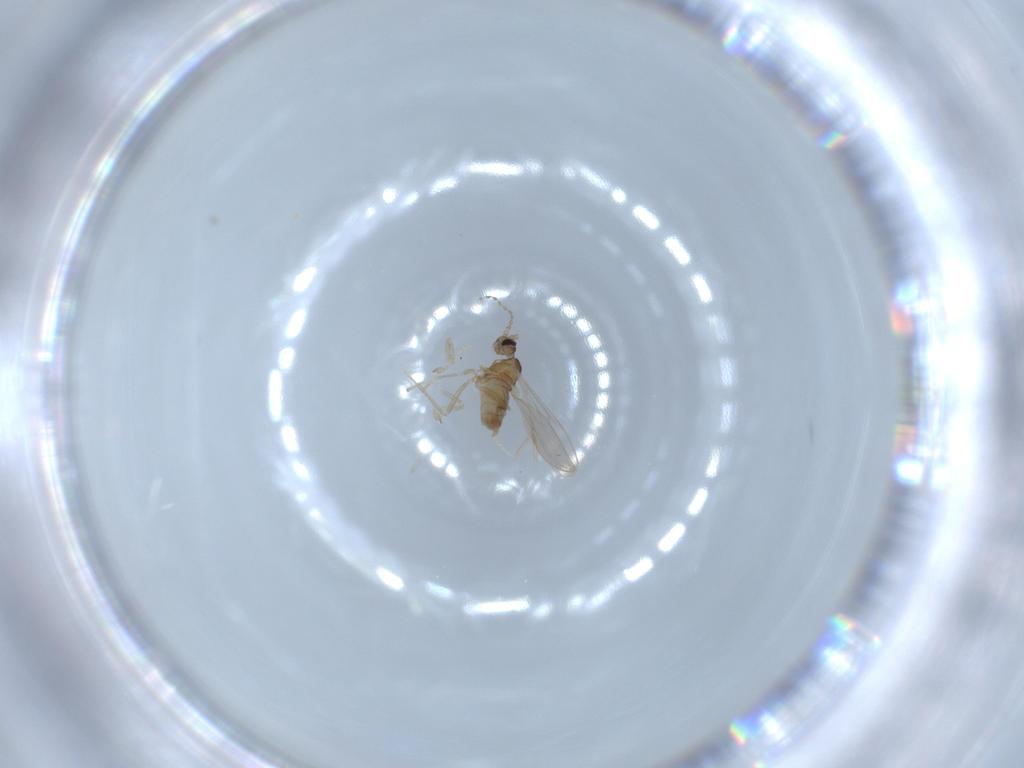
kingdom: Animalia
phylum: Arthropoda
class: Insecta
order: Diptera
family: Cecidomyiidae
